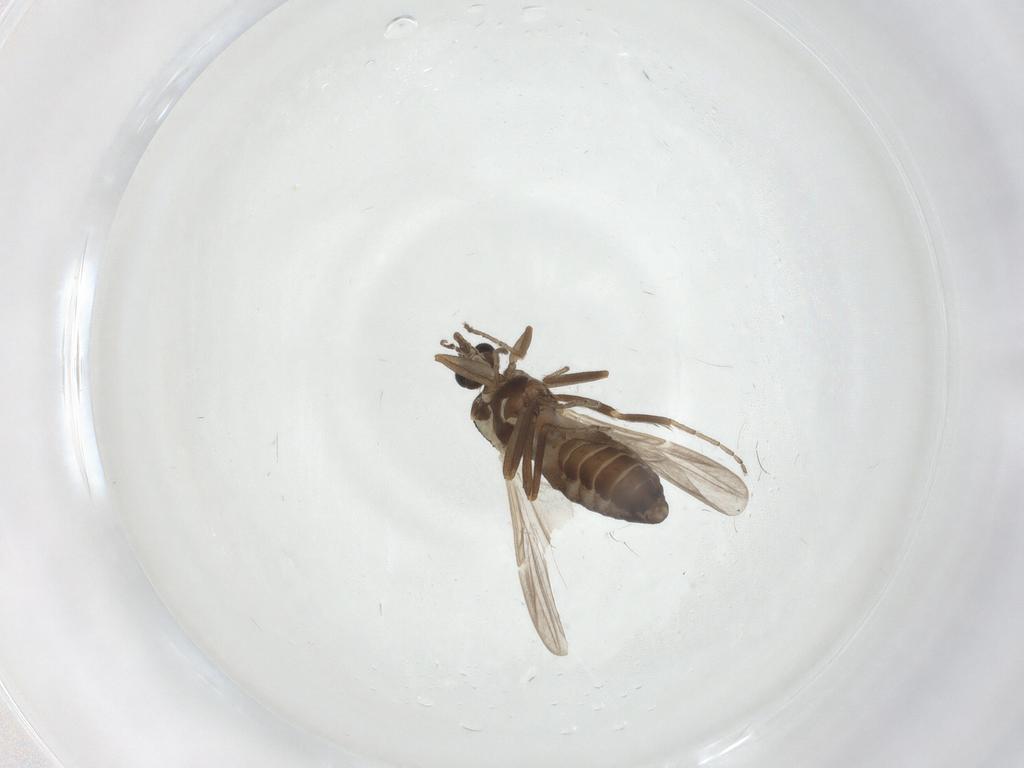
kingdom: Animalia
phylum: Arthropoda
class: Insecta
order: Diptera
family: Ceratopogonidae
